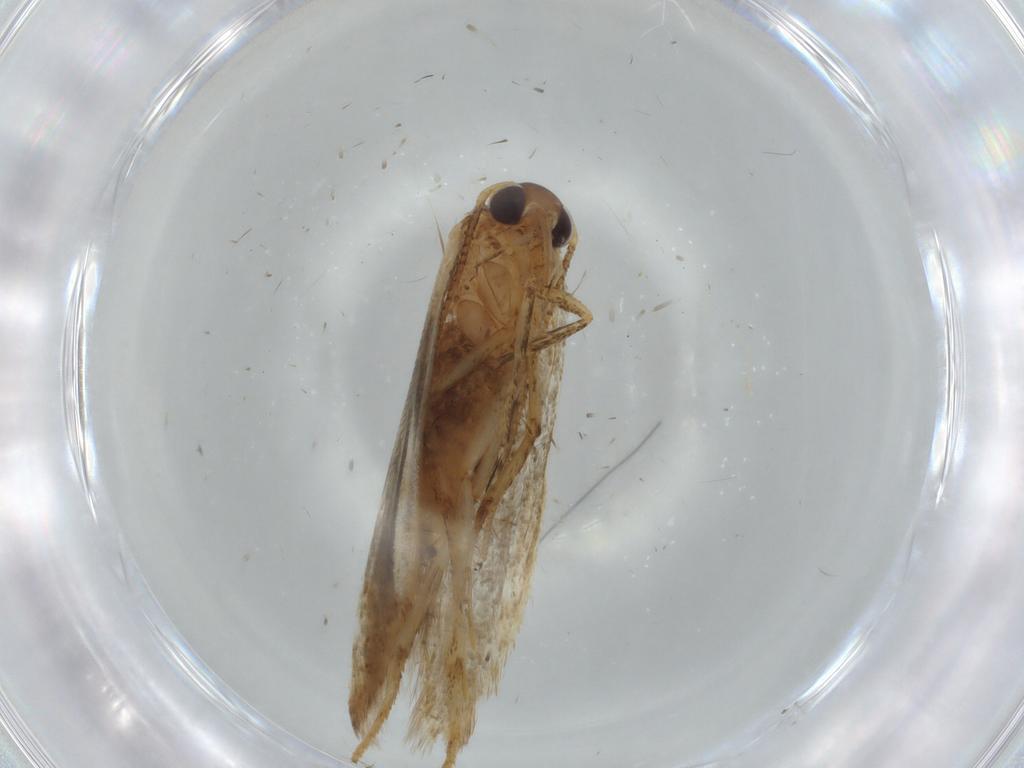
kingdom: Animalia
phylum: Arthropoda
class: Insecta
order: Lepidoptera
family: Blastobasidae
